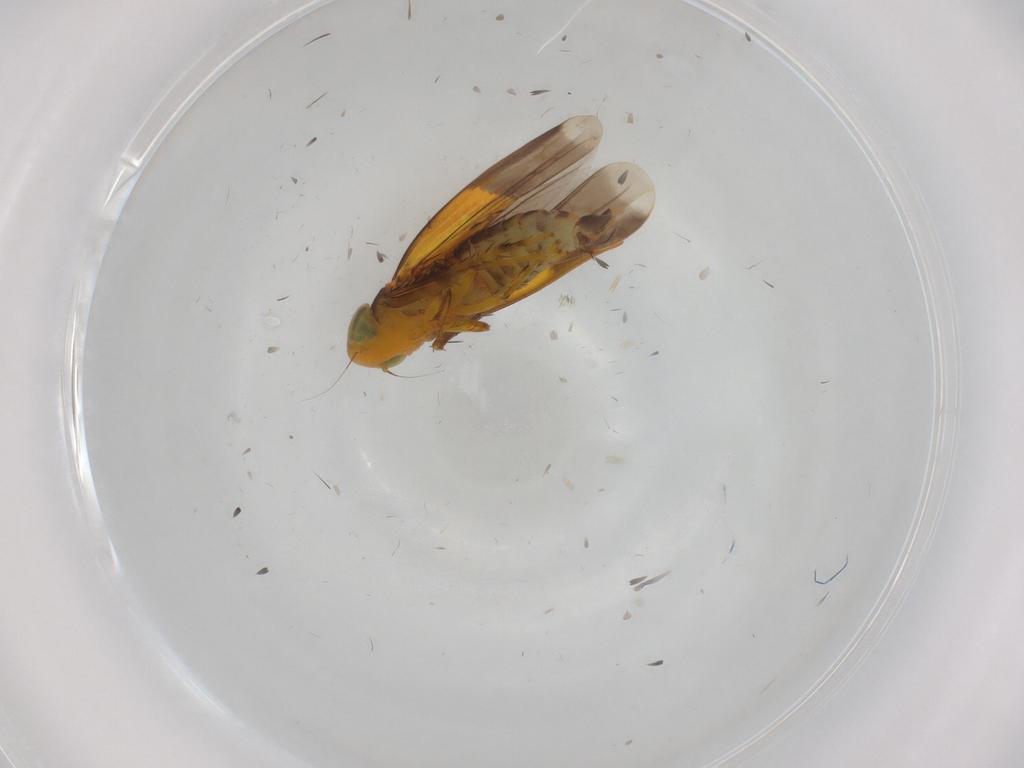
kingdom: Animalia
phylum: Arthropoda
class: Insecta
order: Hemiptera
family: Cicadellidae
